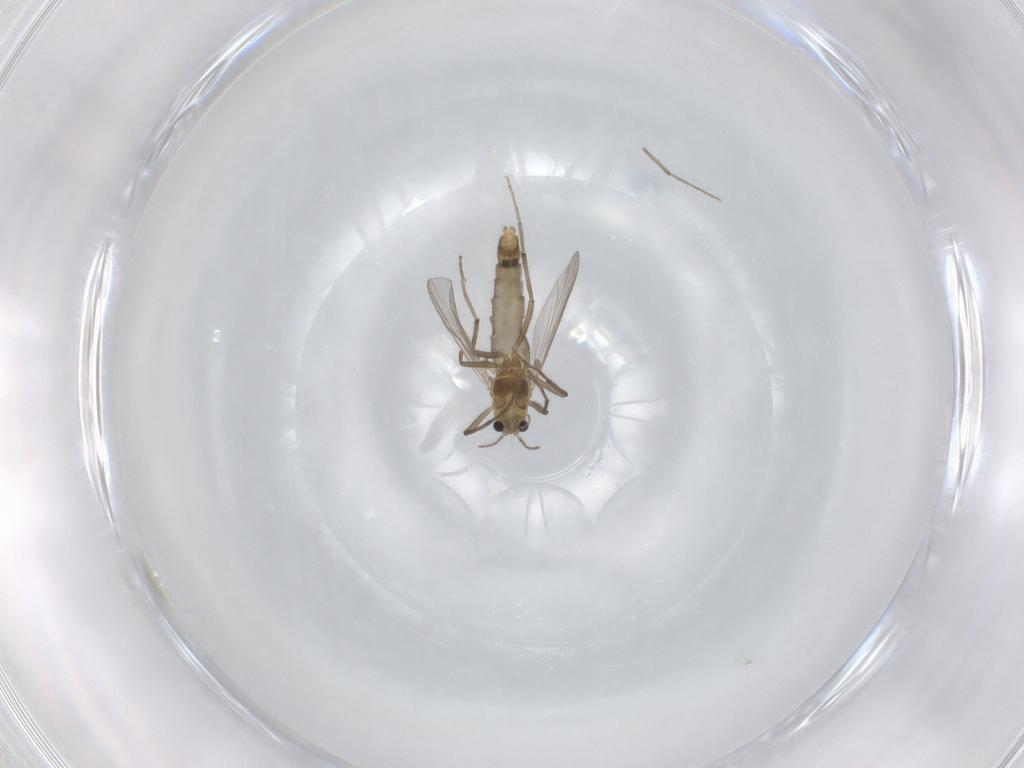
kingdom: Animalia
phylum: Arthropoda
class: Insecta
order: Diptera
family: Chironomidae
